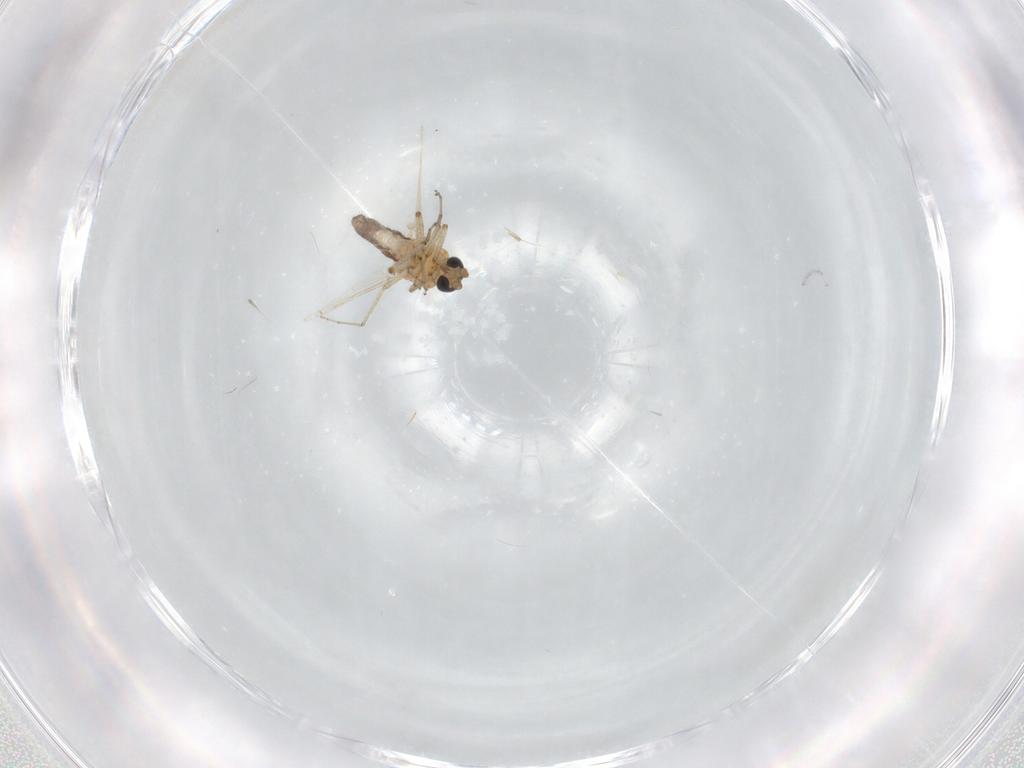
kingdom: Animalia
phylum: Arthropoda
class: Insecta
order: Diptera
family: Ceratopogonidae
